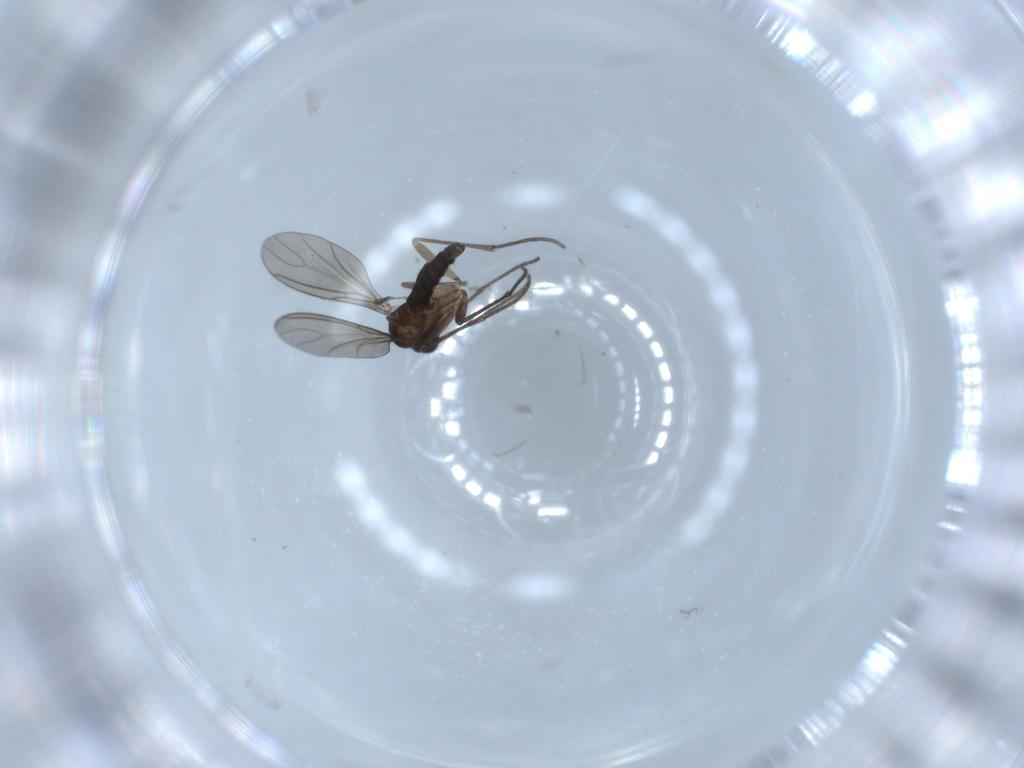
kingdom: Animalia
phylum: Arthropoda
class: Insecta
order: Diptera
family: Sciaridae
